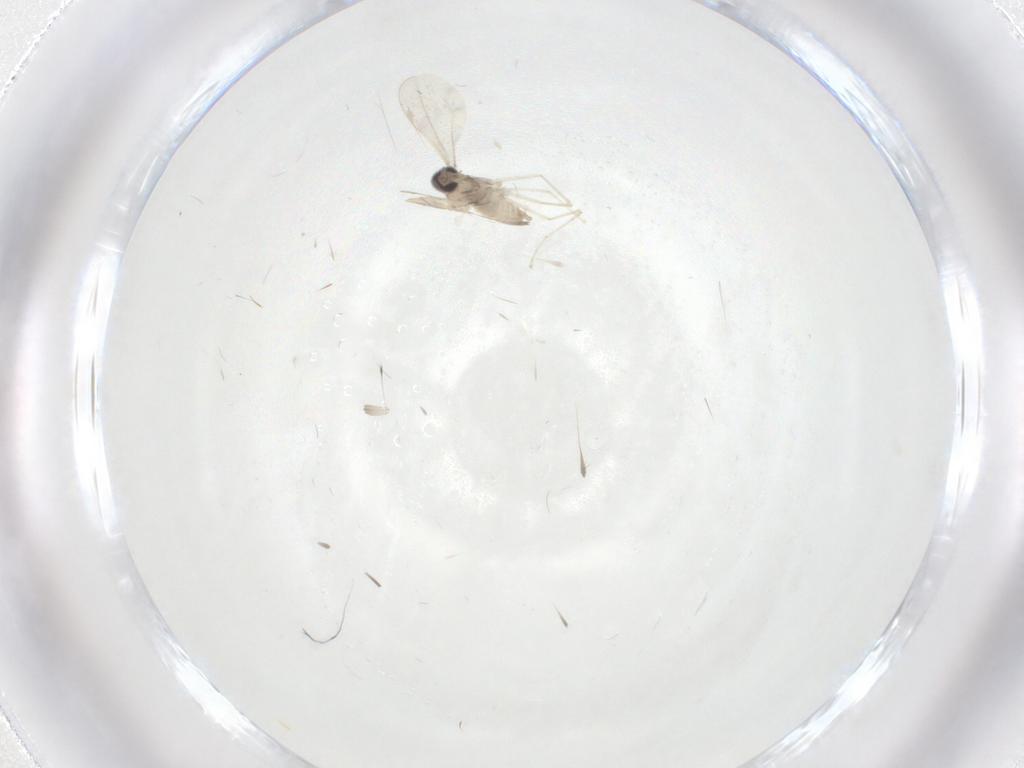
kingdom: Animalia
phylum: Arthropoda
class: Insecta
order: Diptera
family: Cecidomyiidae
